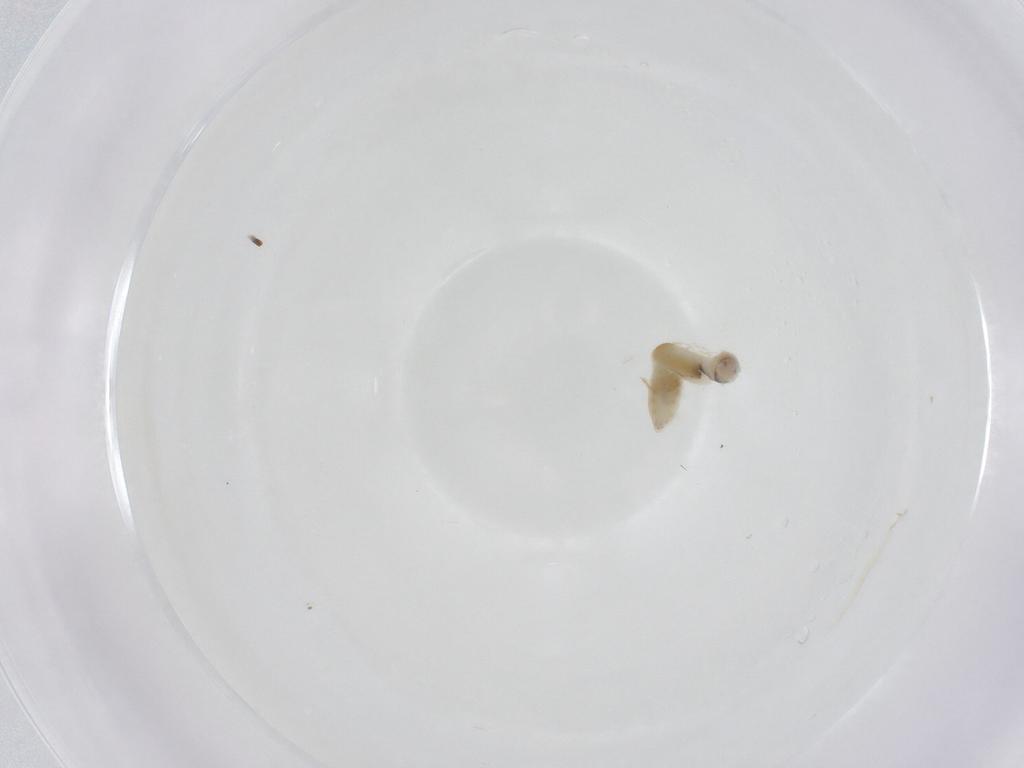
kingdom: Animalia
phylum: Arthropoda
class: Insecta
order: Hymenoptera
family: Dryinidae
